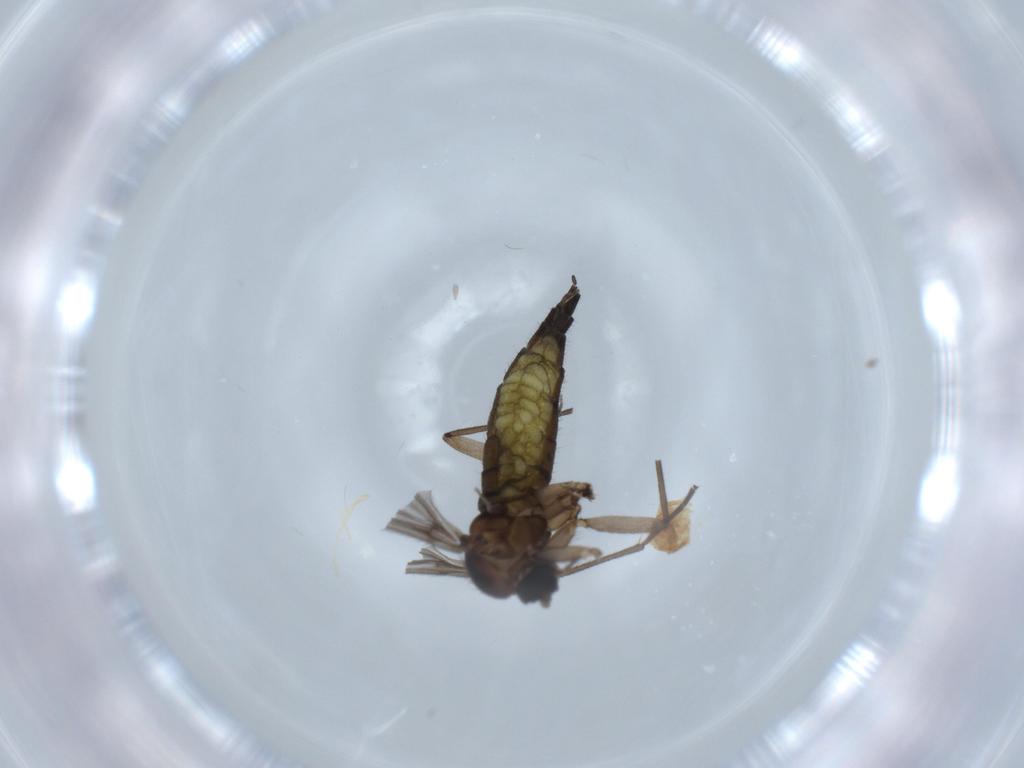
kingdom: Animalia
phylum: Arthropoda
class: Insecta
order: Diptera
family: Sciaridae
